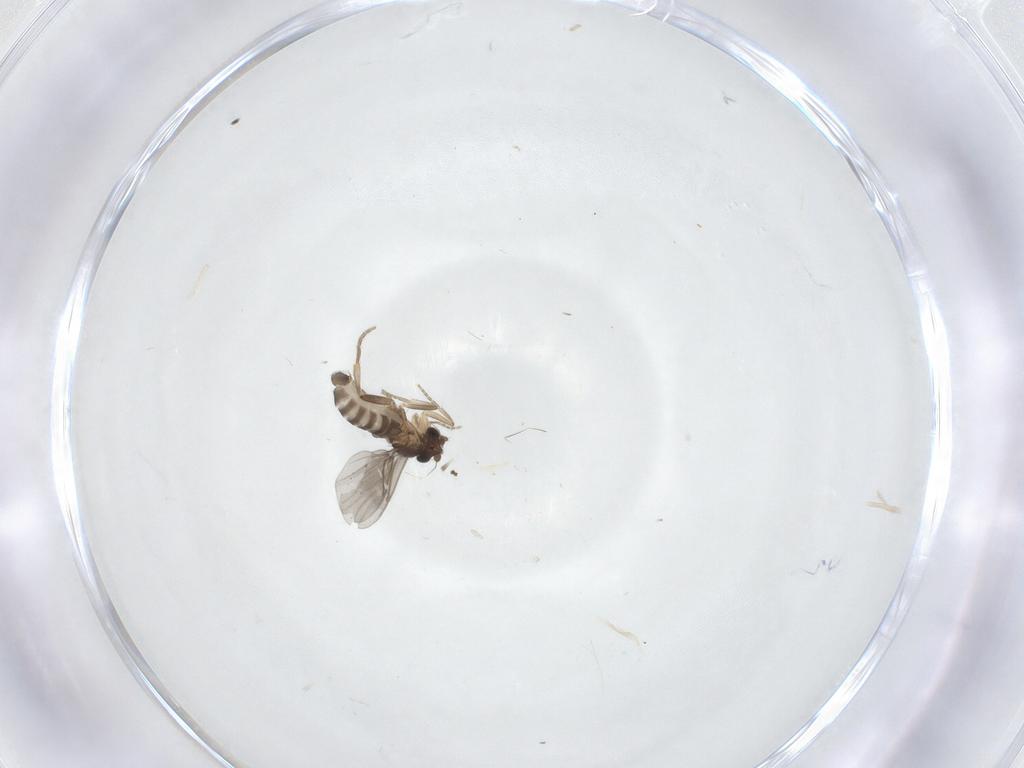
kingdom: Animalia
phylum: Arthropoda
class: Insecta
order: Diptera
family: Phoridae
